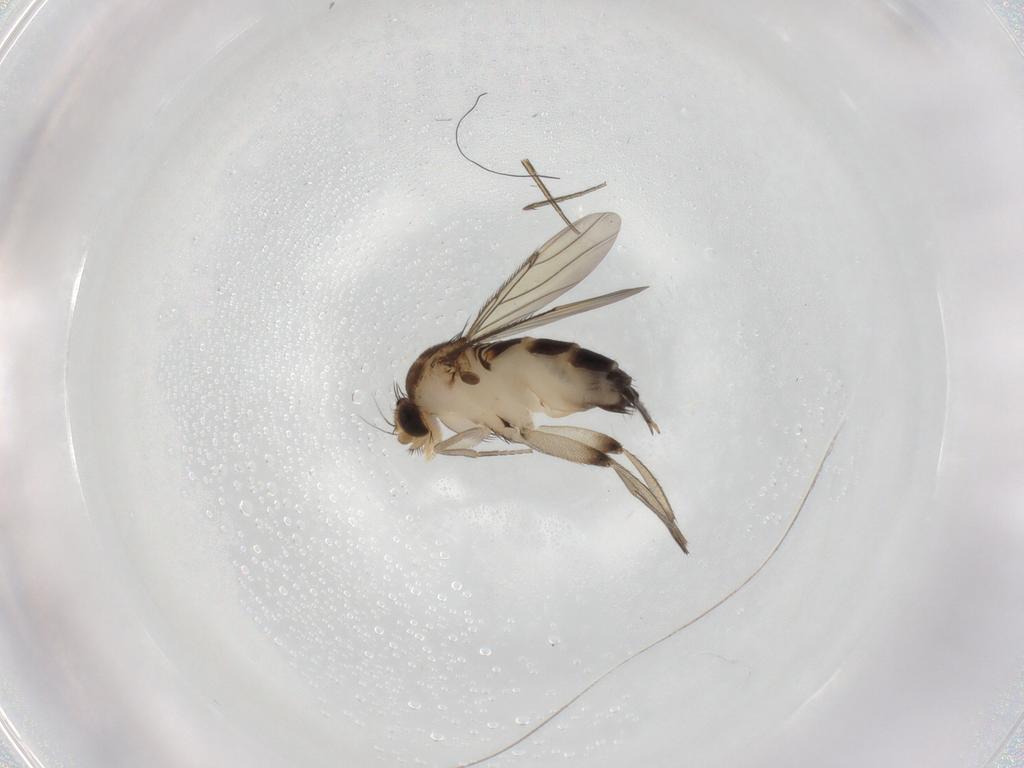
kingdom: Animalia
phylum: Arthropoda
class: Insecta
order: Diptera
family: Phoridae
